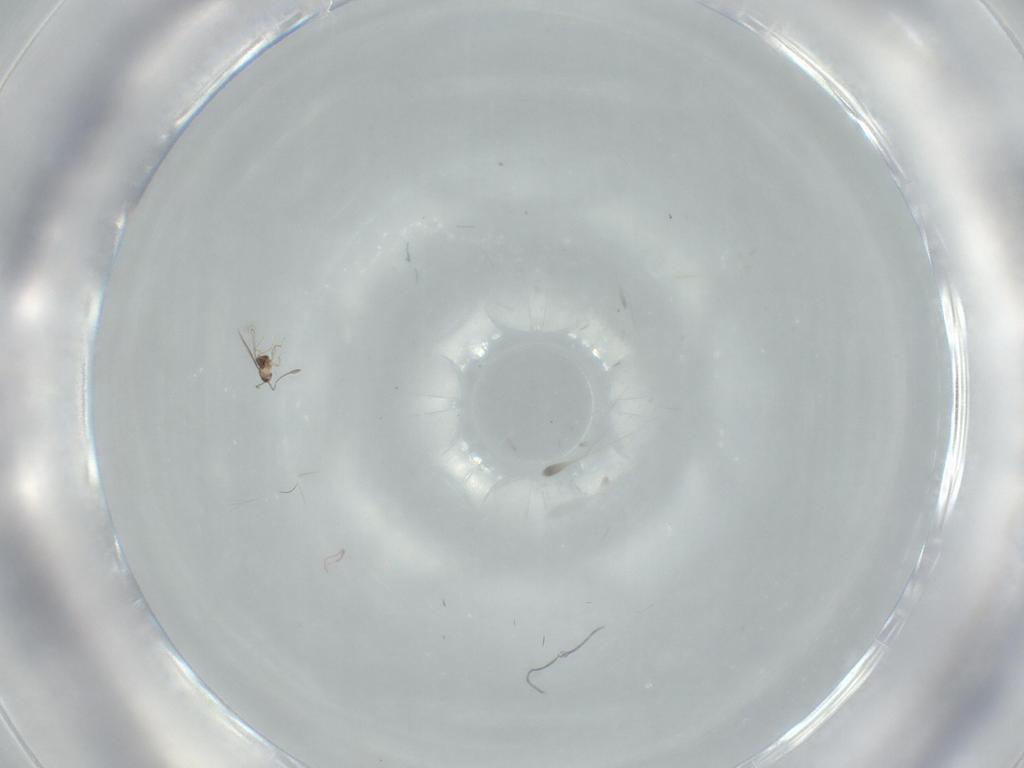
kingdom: Animalia
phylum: Arthropoda
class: Insecta
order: Hymenoptera
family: Mymaridae
